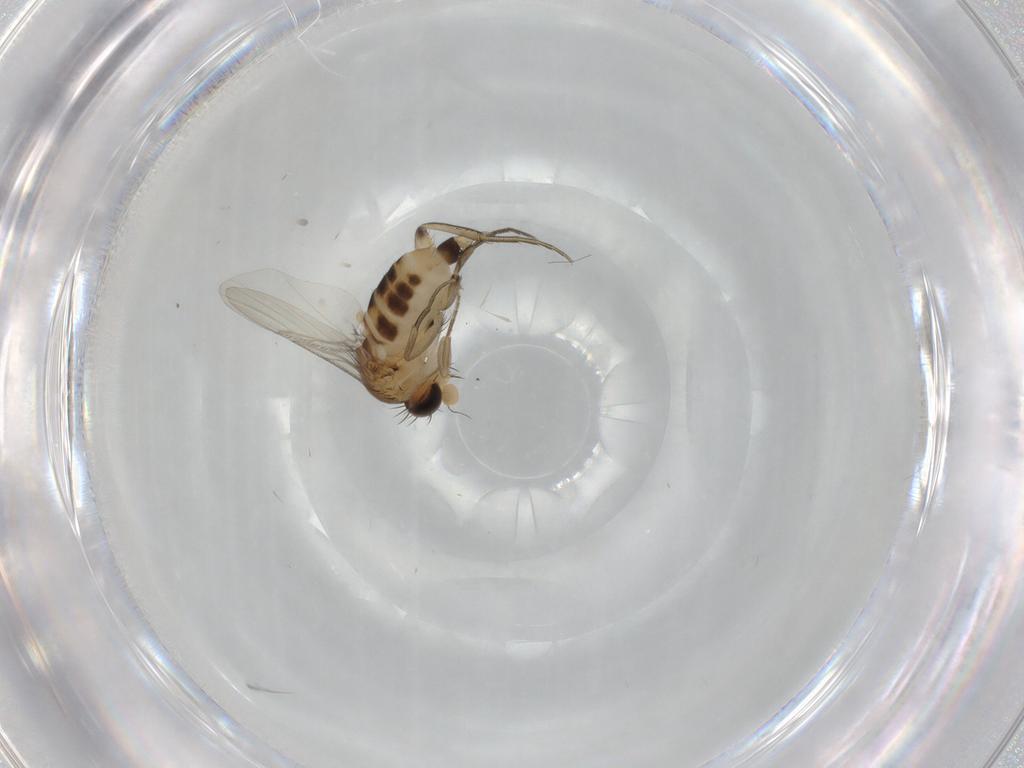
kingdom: Animalia
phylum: Arthropoda
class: Insecta
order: Diptera
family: Phoridae
